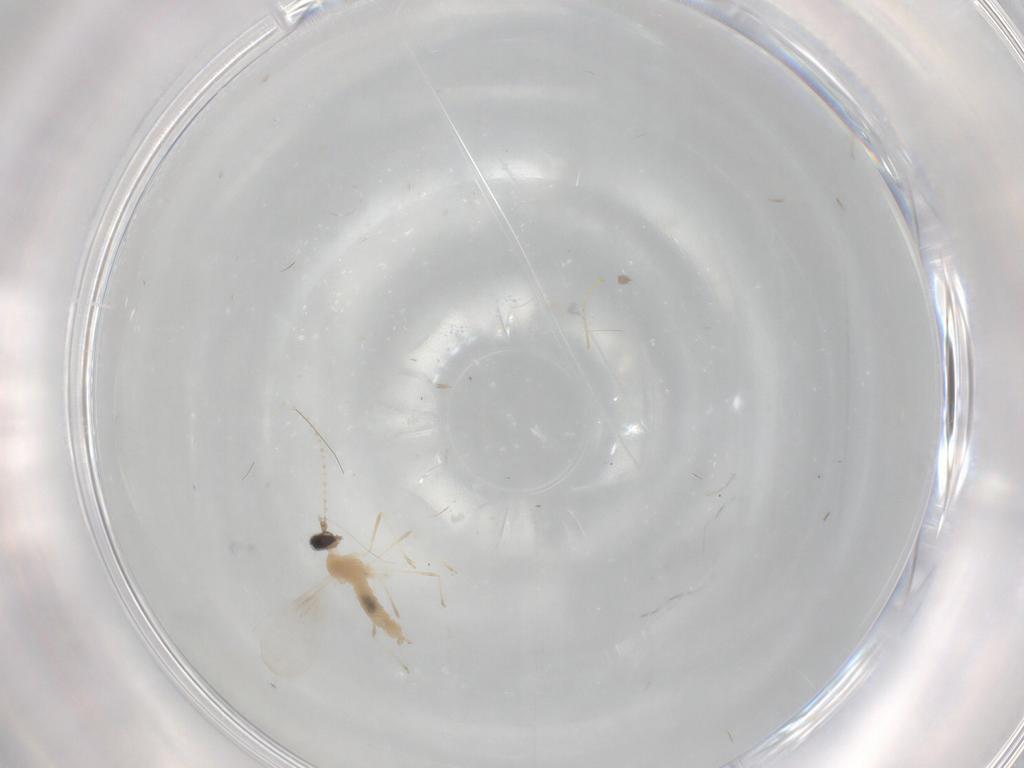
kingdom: Animalia
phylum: Arthropoda
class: Insecta
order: Diptera
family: Cecidomyiidae
